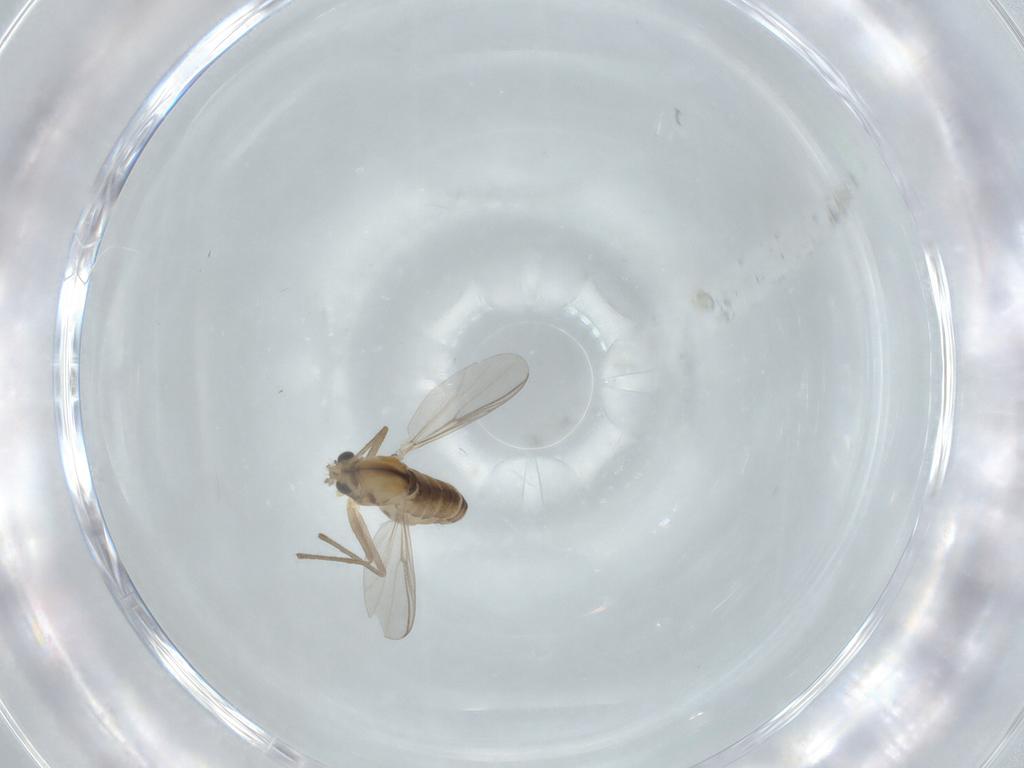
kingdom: Animalia
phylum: Arthropoda
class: Insecta
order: Diptera
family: Chironomidae
